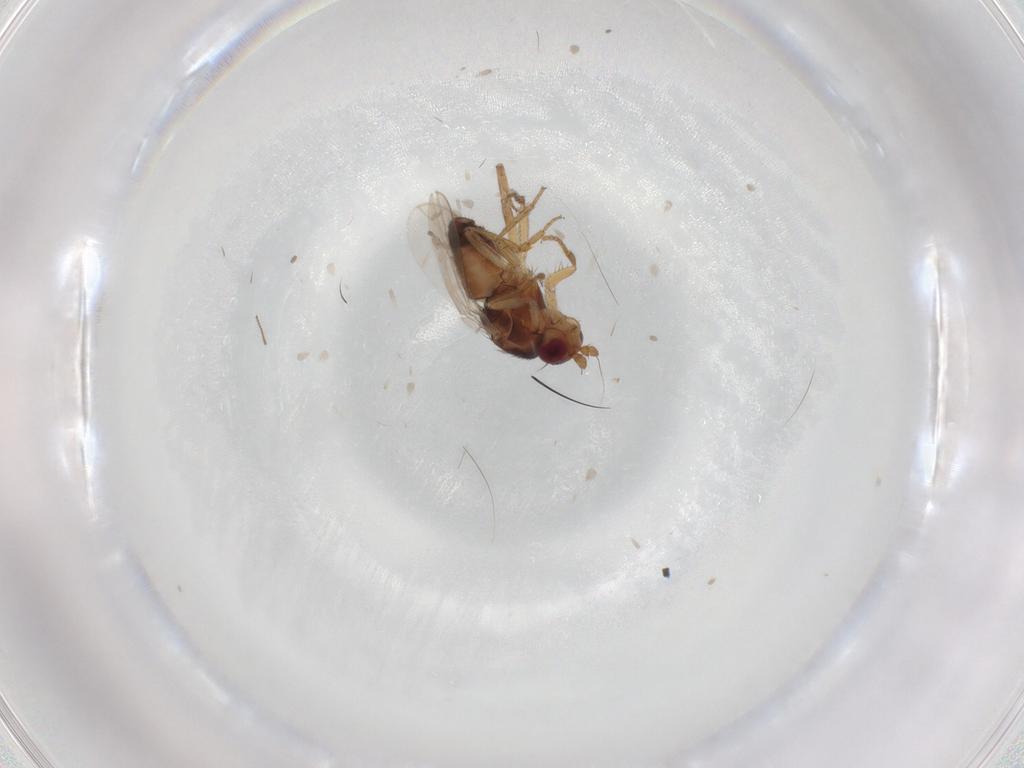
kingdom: Animalia
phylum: Arthropoda
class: Insecta
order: Diptera
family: Sphaeroceridae
